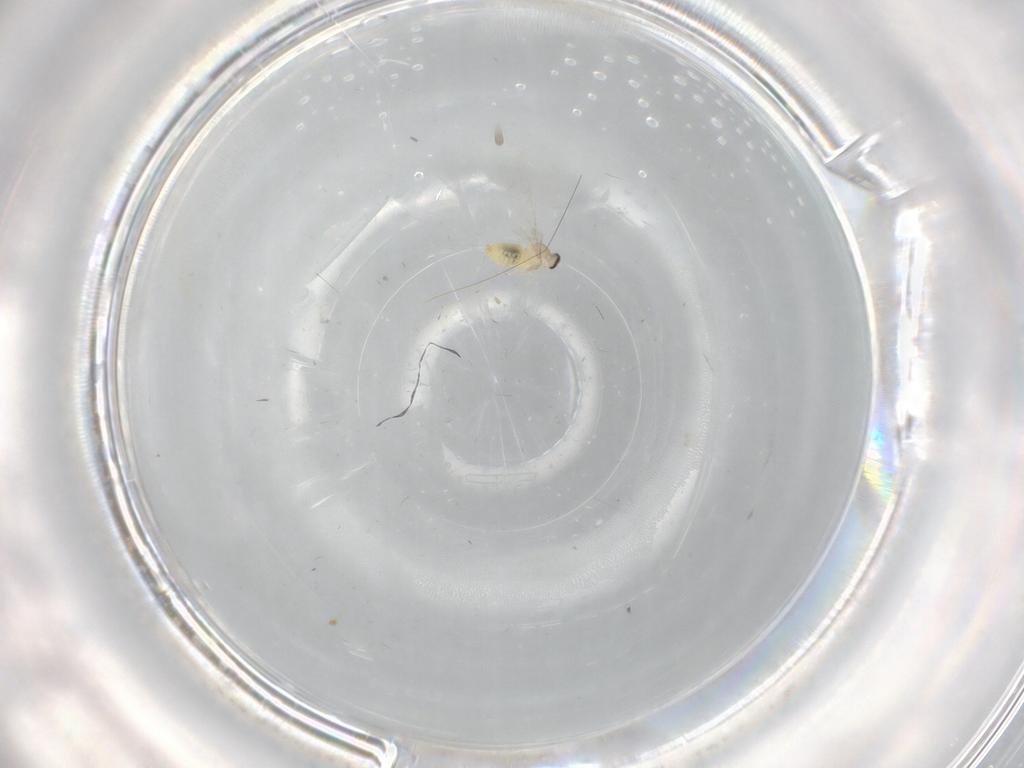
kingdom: Animalia
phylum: Arthropoda
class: Insecta
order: Diptera
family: Cecidomyiidae
